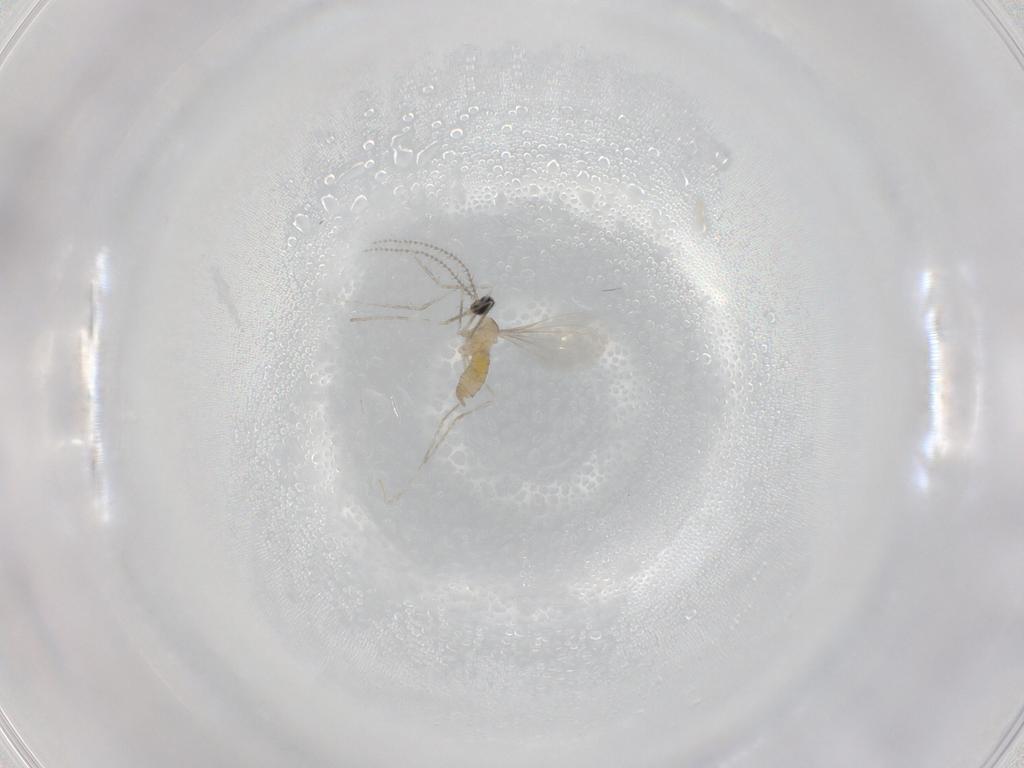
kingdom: Animalia
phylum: Arthropoda
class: Insecta
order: Diptera
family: Cecidomyiidae
